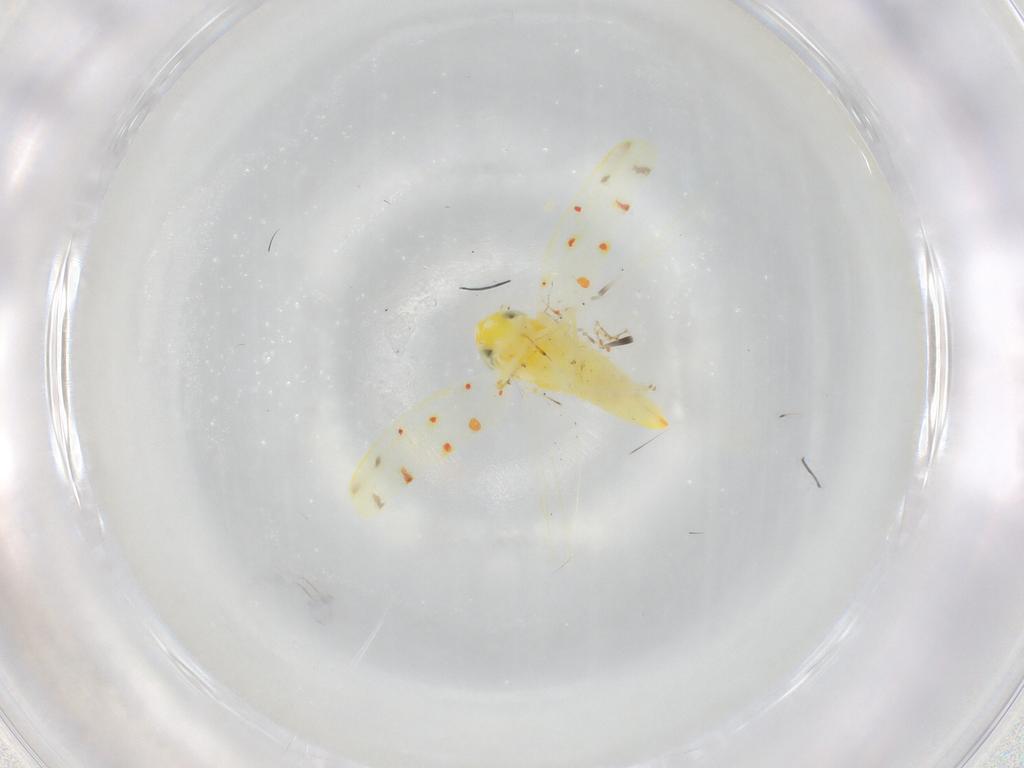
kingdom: Animalia
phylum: Arthropoda
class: Insecta
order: Hemiptera
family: Cicadellidae
